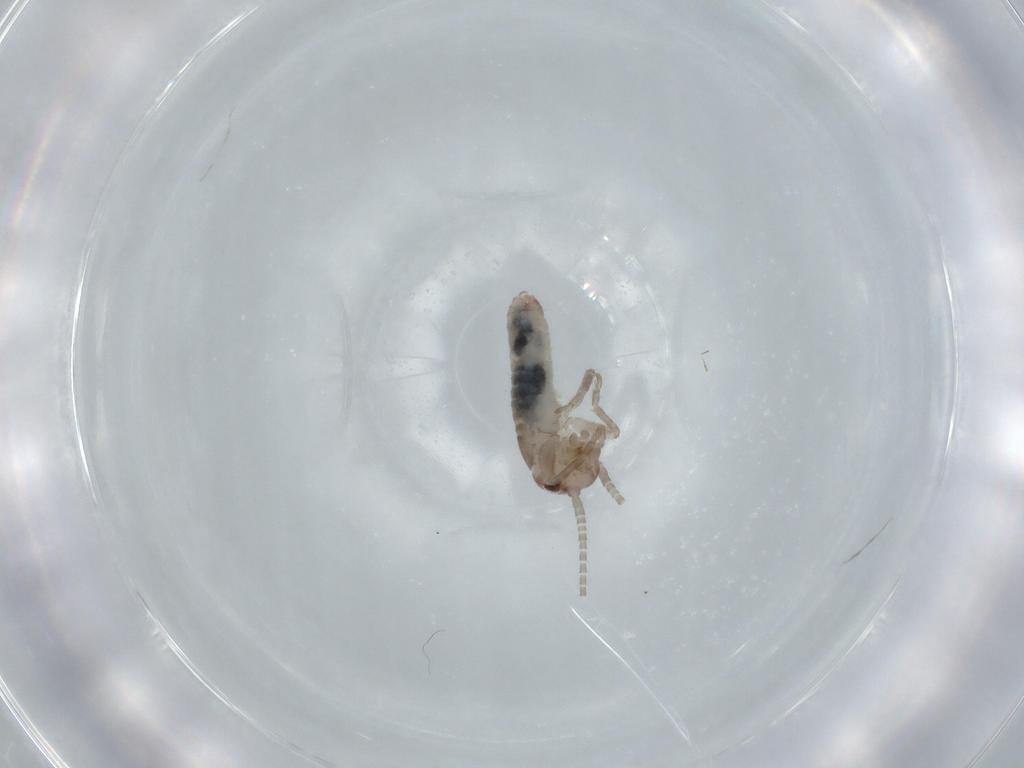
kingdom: Animalia
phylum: Arthropoda
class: Insecta
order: Orthoptera
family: Mogoplistidae
